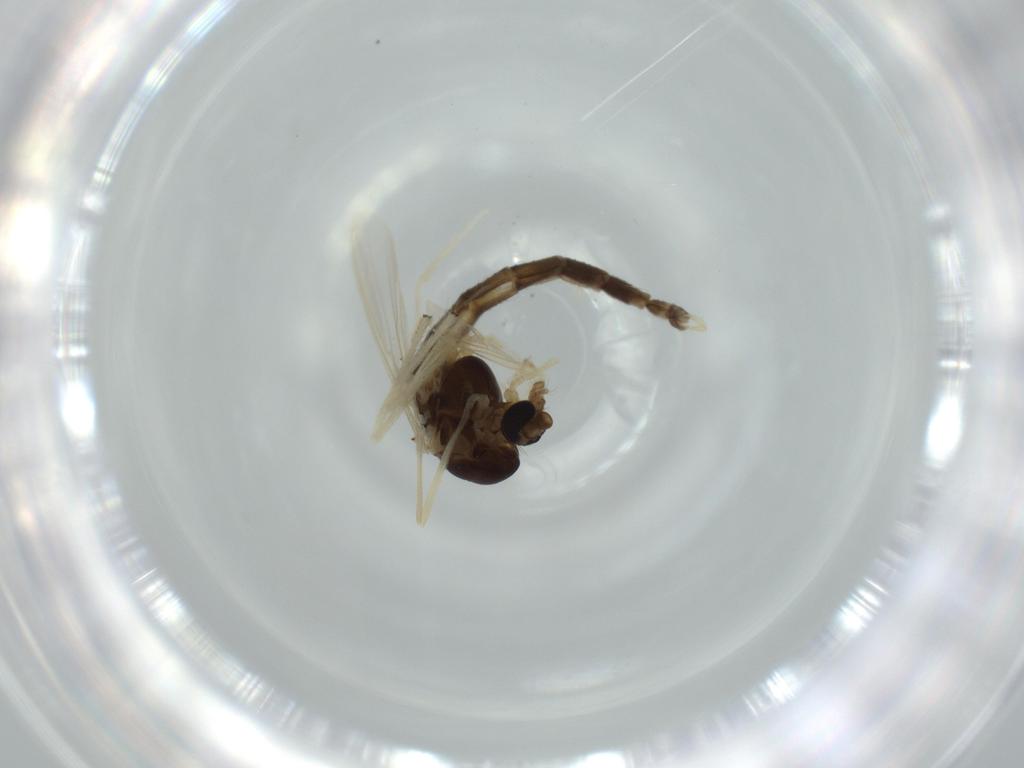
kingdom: Animalia
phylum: Arthropoda
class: Insecta
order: Diptera
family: Chironomidae
